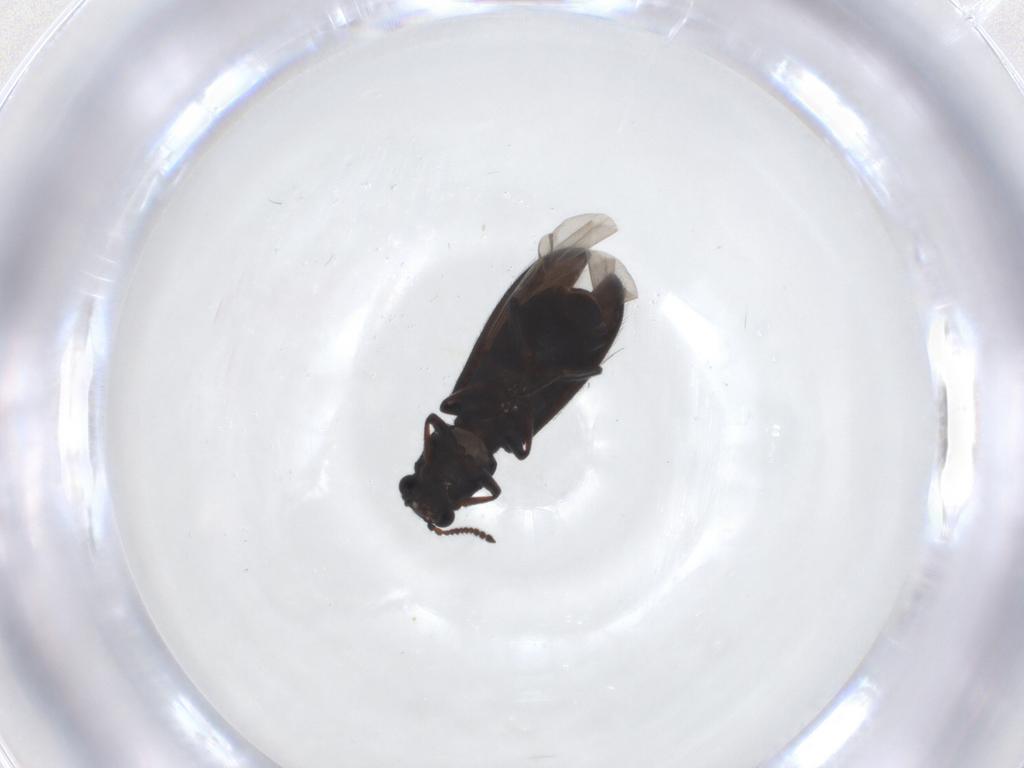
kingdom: Animalia
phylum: Arthropoda
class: Insecta
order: Coleoptera
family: Melyridae
